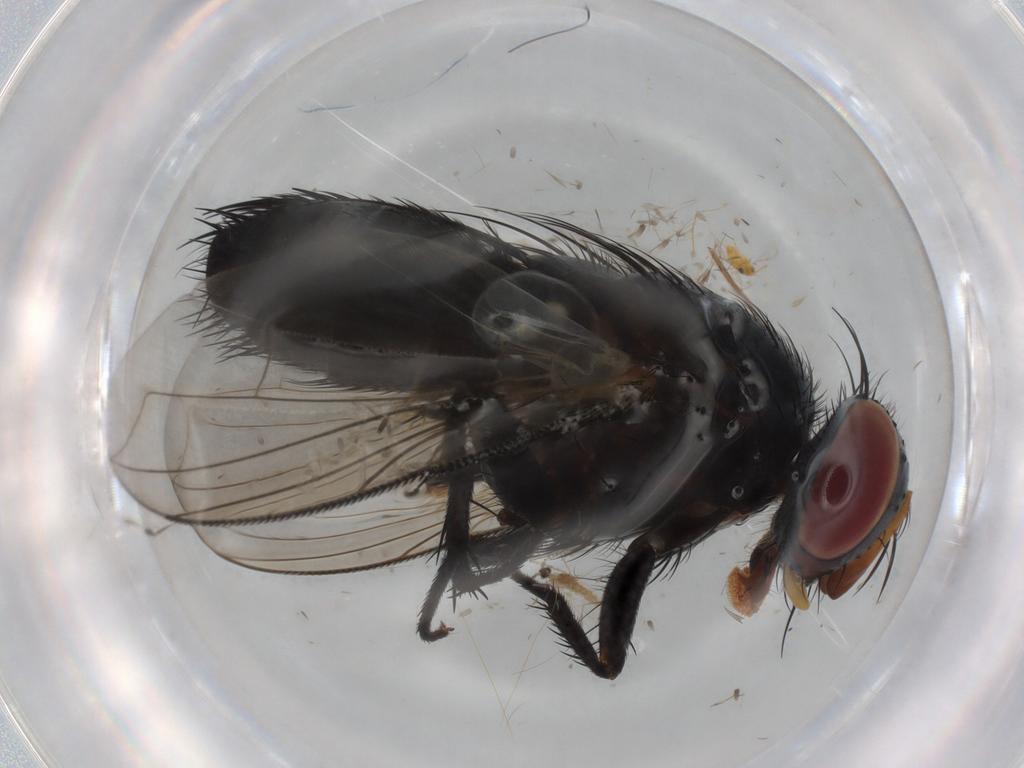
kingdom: Animalia
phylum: Arthropoda
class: Insecta
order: Diptera
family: Tachinidae
